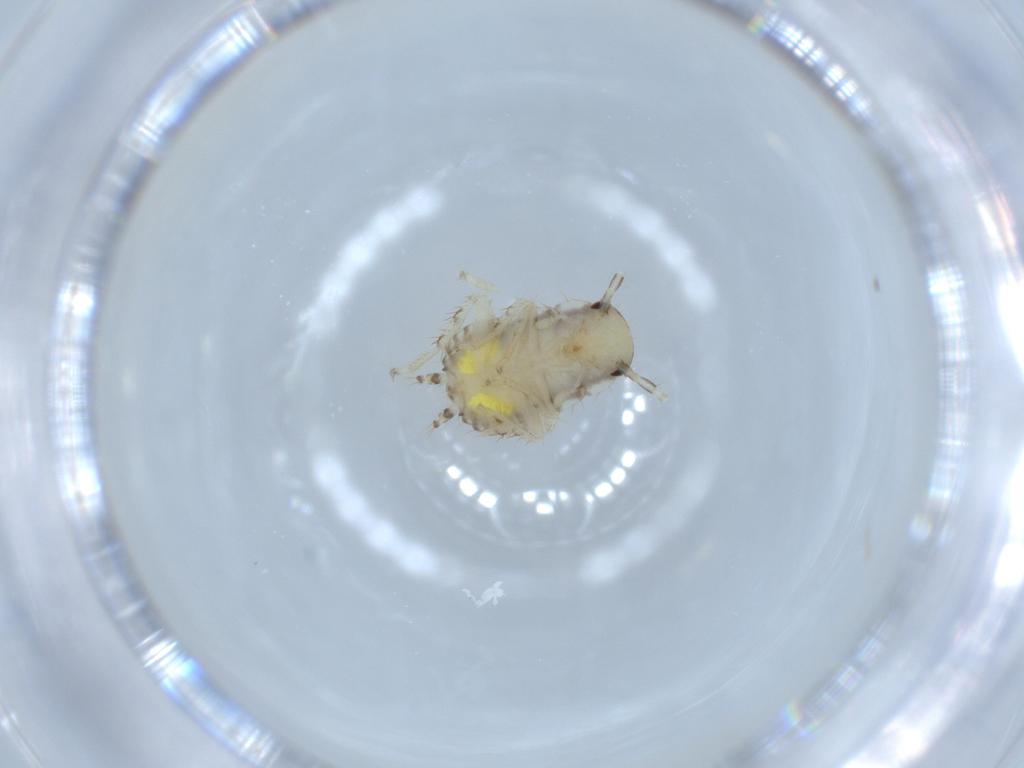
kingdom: Animalia
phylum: Arthropoda
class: Insecta
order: Blattodea
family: Ectobiidae
